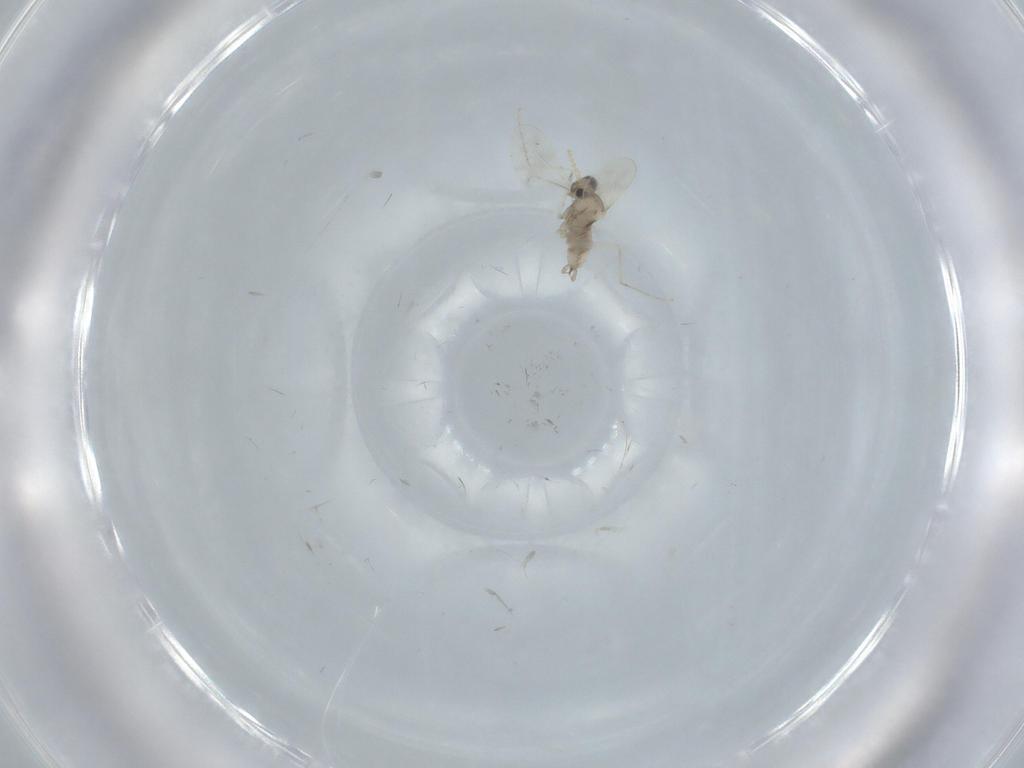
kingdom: Animalia
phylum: Arthropoda
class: Insecta
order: Diptera
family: Cecidomyiidae
